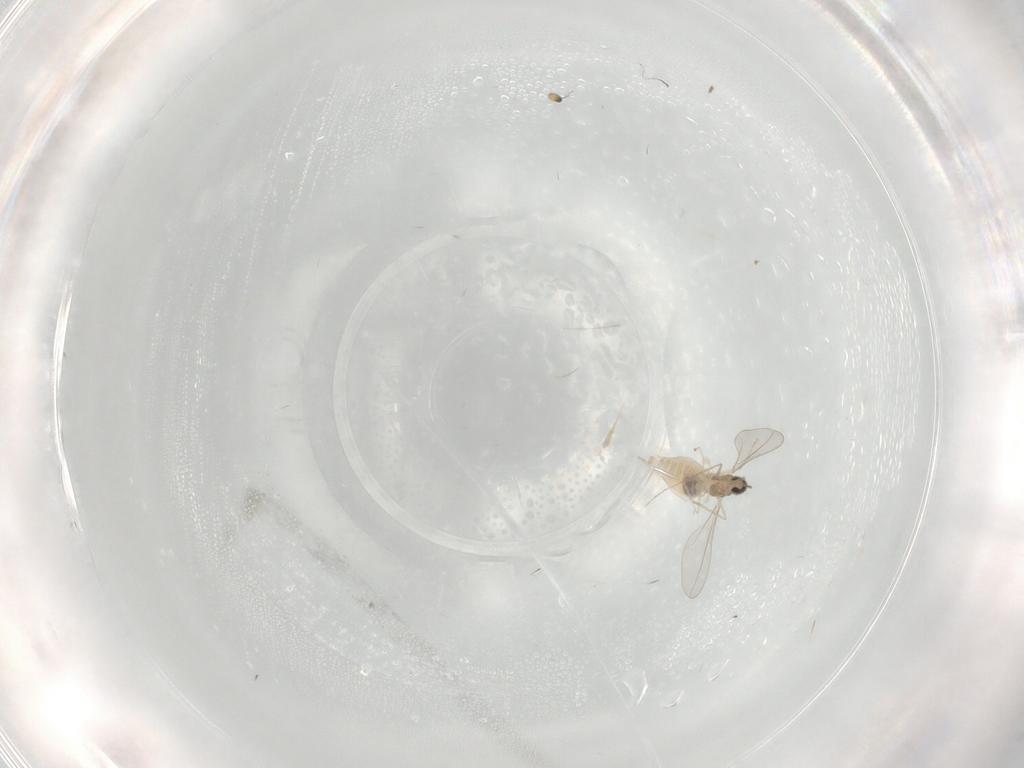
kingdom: Animalia
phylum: Arthropoda
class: Insecta
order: Diptera
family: Cecidomyiidae
